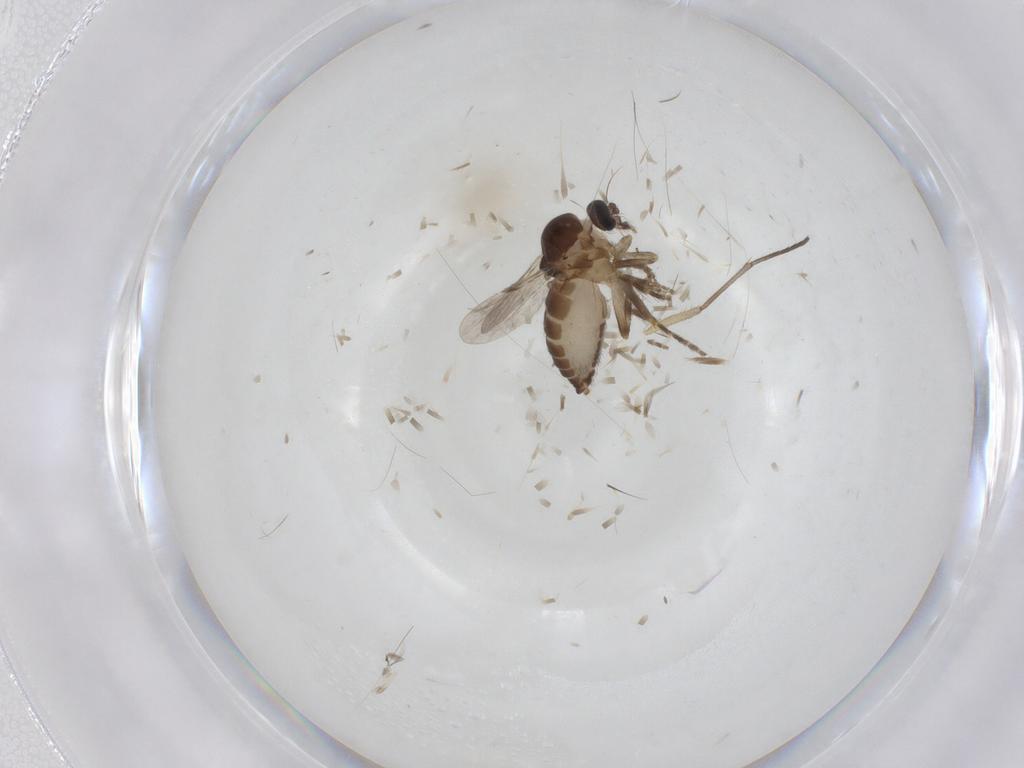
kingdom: Animalia
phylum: Arthropoda
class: Insecta
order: Diptera
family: Ceratopogonidae
